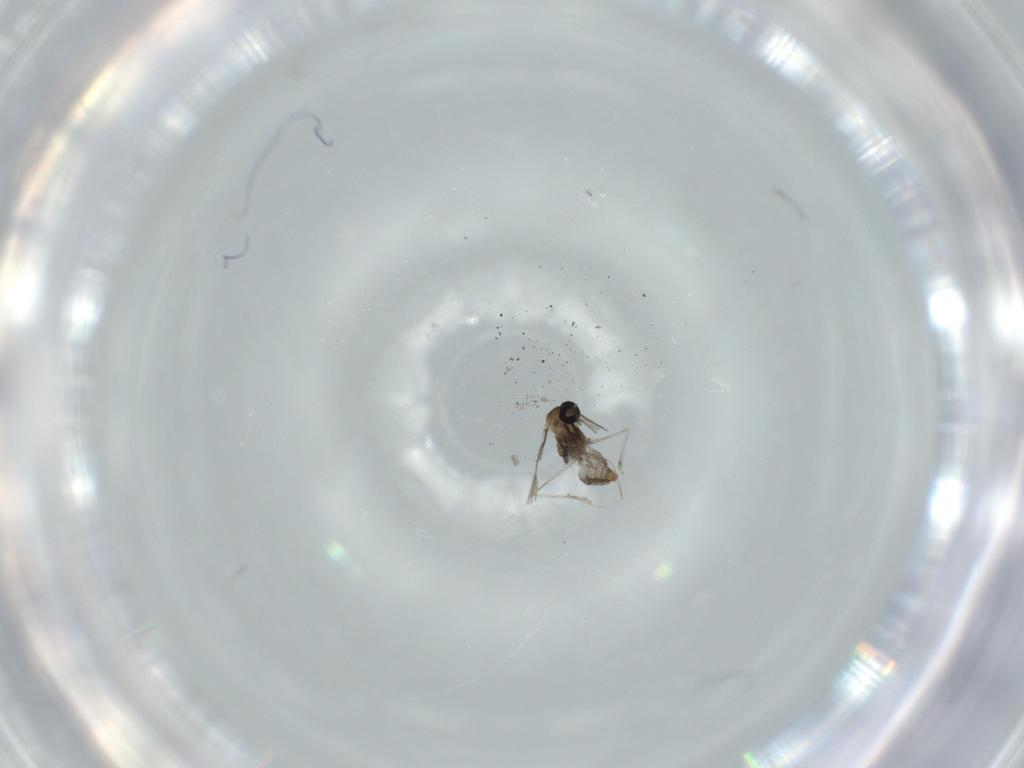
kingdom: Animalia
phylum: Arthropoda
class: Insecta
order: Diptera
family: Cecidomyiidae
